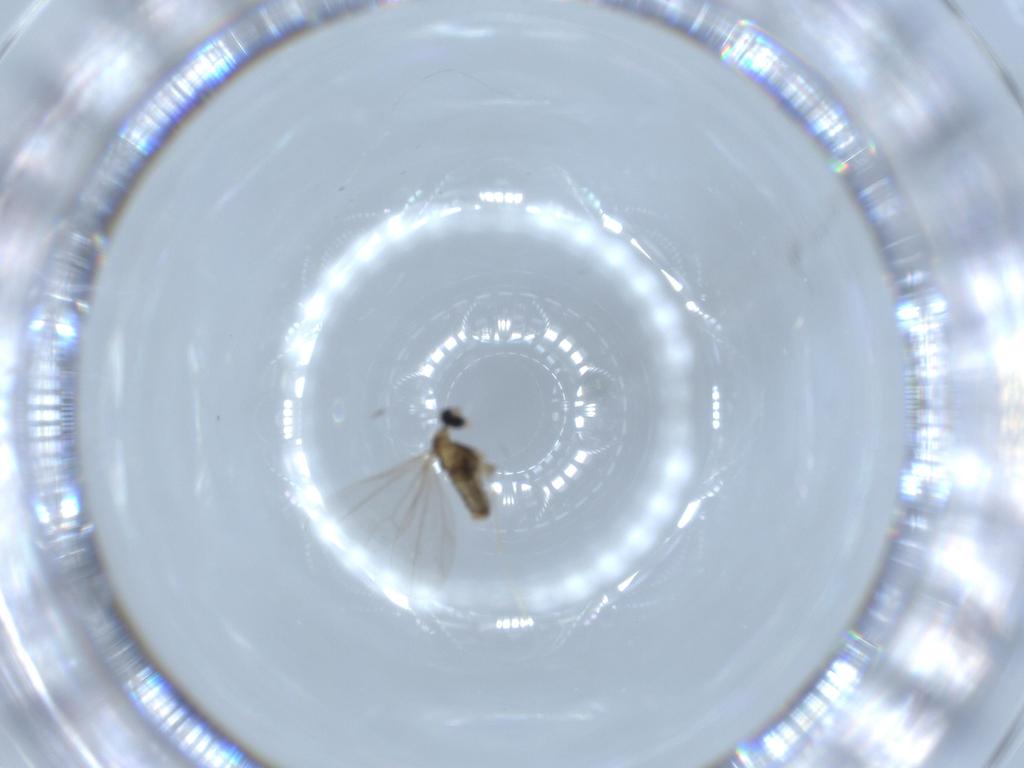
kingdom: Animalia
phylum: Arthropoda
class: Insecta
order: Diptera
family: Cecidomyiidae
